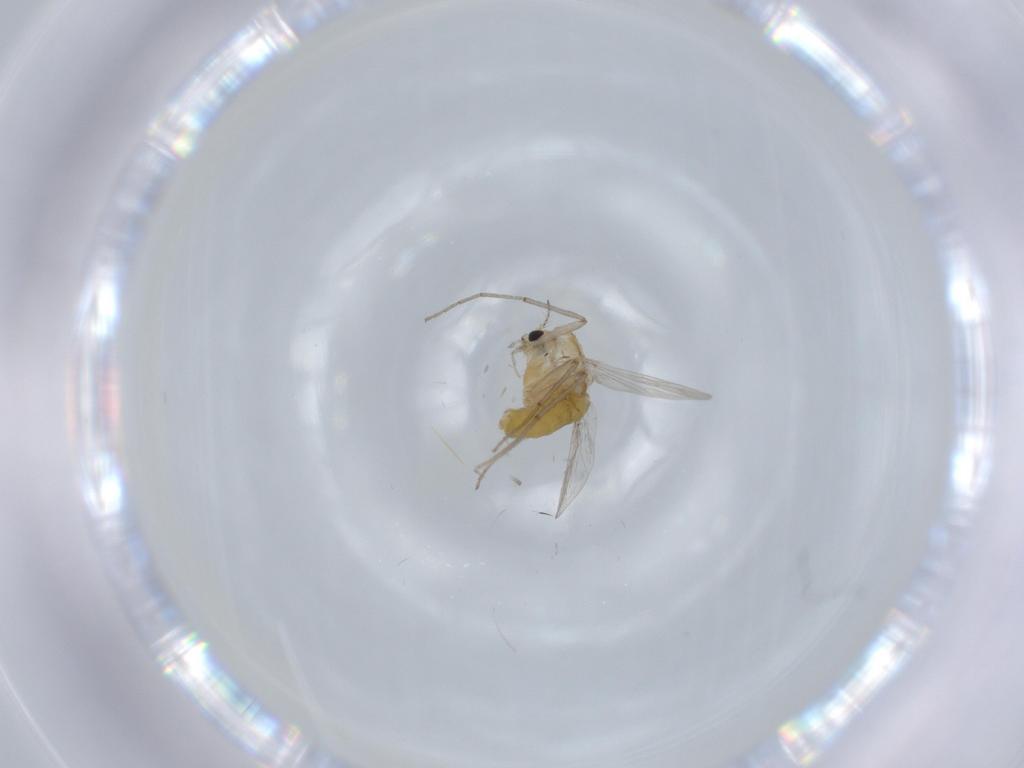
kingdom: Animalia
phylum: Arthropoda
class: Insecta
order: Diptera
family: Chironomidae
